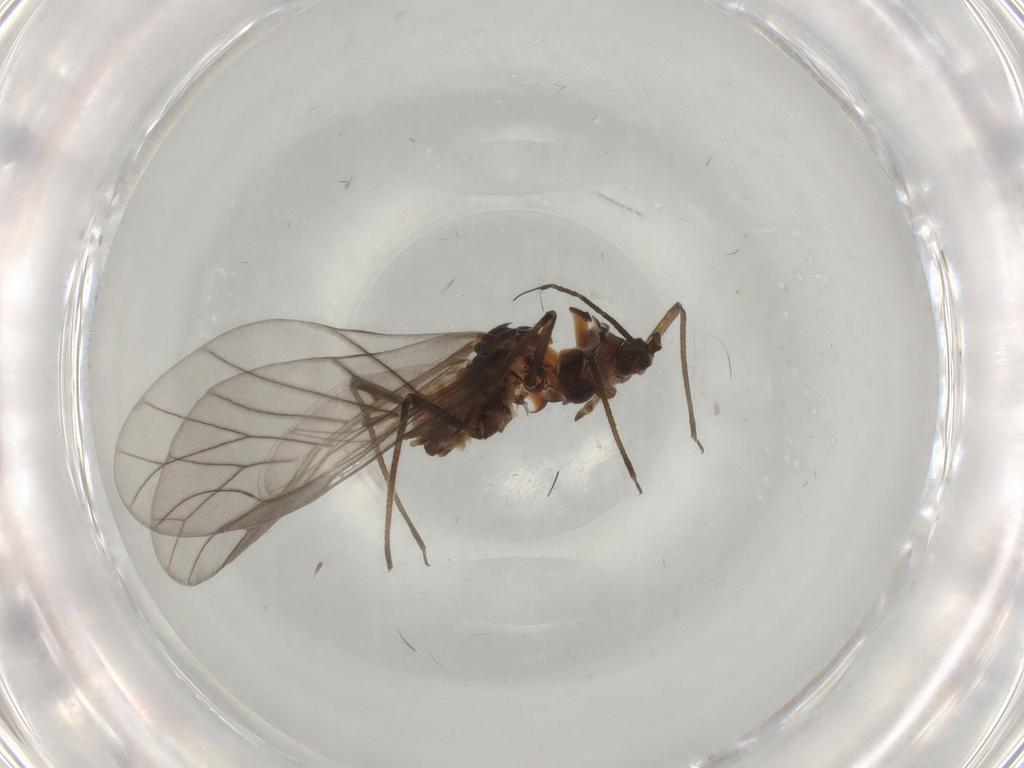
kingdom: Animalia
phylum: Arthropoda
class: Insecta
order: Hemiptera
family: Aphididae
